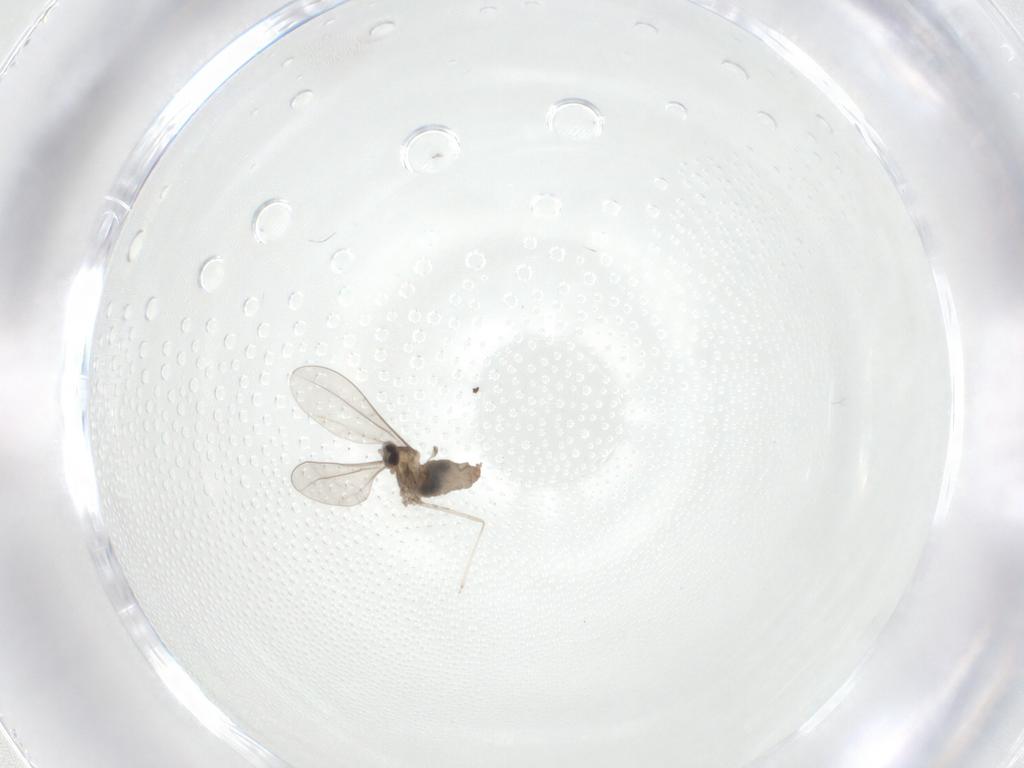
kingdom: Animalia
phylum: Arthropoda
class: Insecta
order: Diptera
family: Cecidomyiidae
